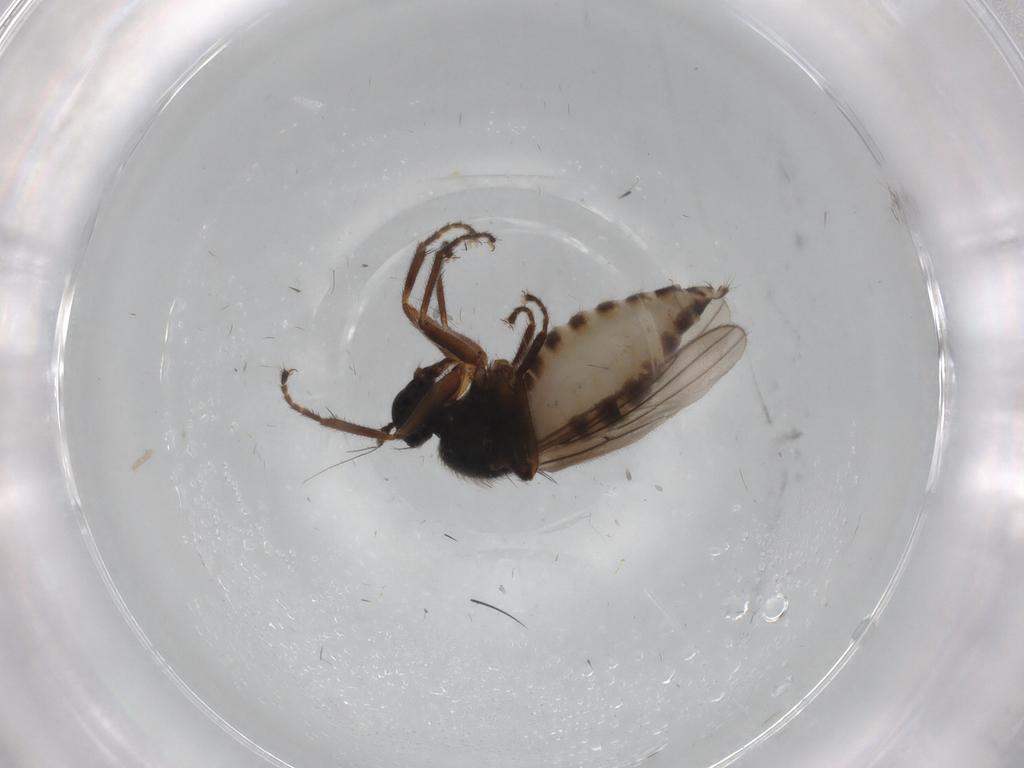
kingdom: Animalia
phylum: Arthropoda
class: Insecta
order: Diptera
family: Hybotidae
